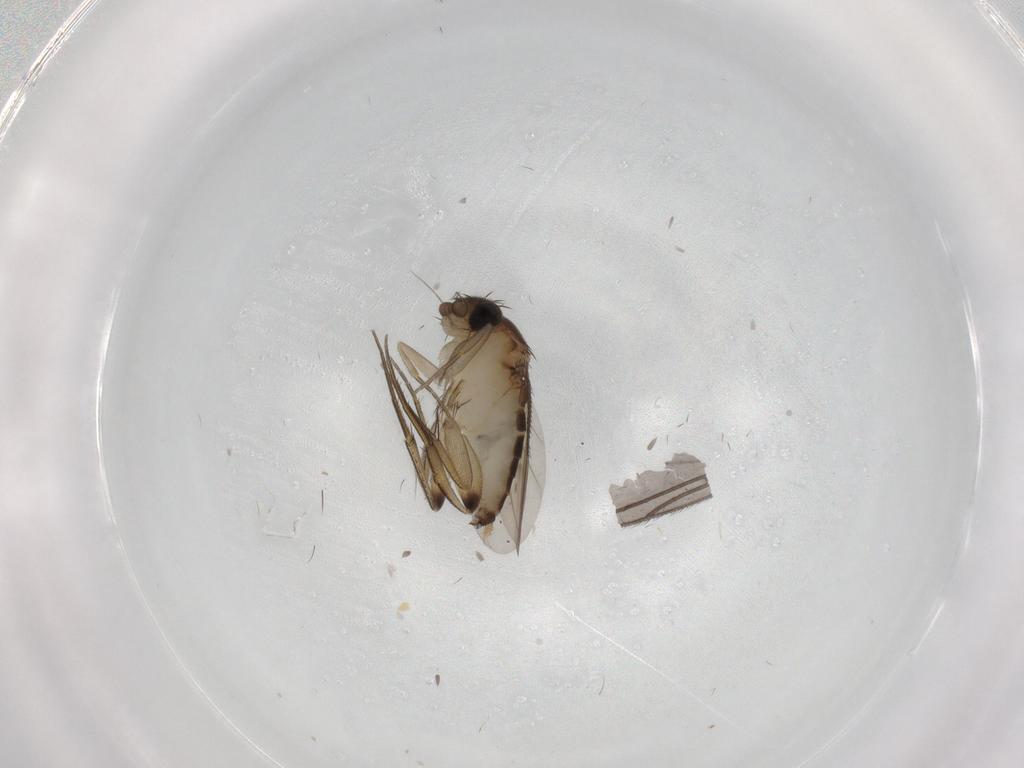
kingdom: Animalia
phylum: Arthropoda
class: Insecta
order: Diptera
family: Phoridae
